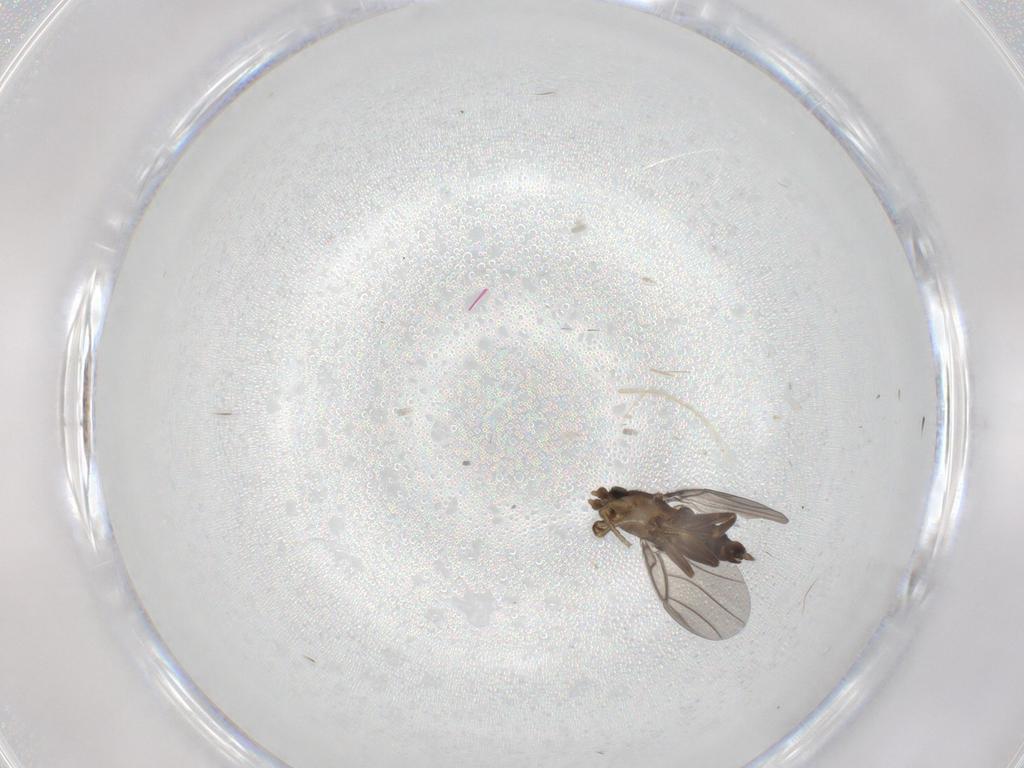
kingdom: Animalia
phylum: Arthropoda
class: Insecta
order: Diptera
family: Phoridae
